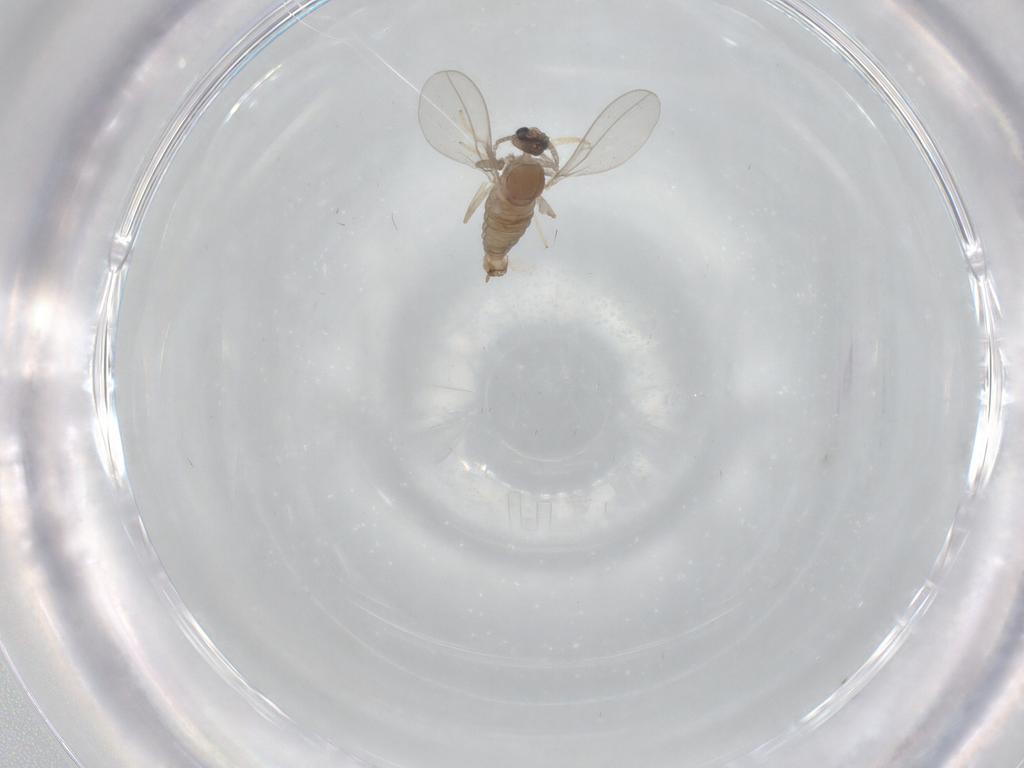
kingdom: Animalia
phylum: Arthropoda
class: Insecta
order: Diptera
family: Cecidomyiidae
